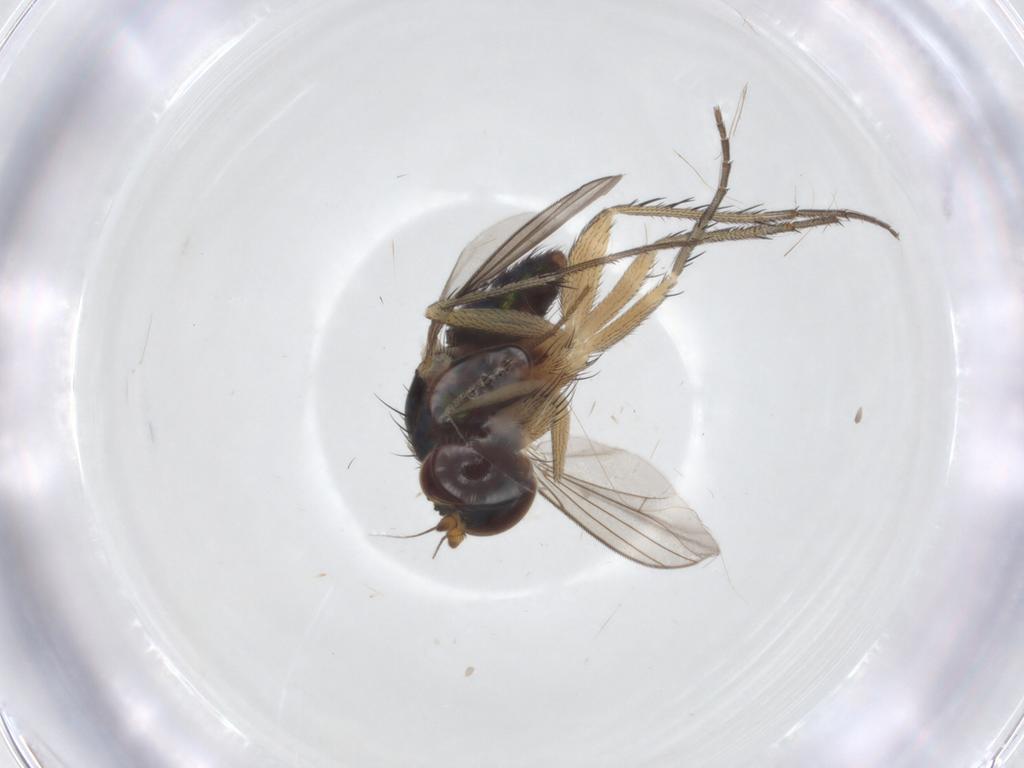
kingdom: Animalia
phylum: Arthropoda
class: Insecta
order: Diptera
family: Dolichopodidae
